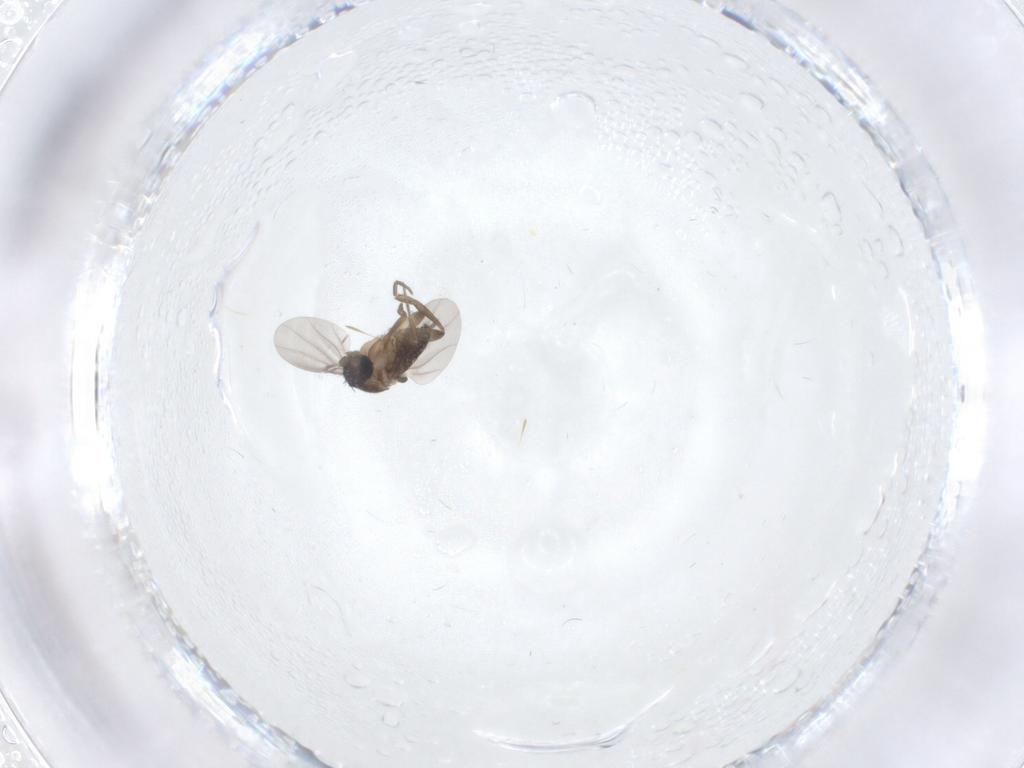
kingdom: Animalia
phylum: Arthropoda
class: Insecta
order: Diptera
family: Phoridae
